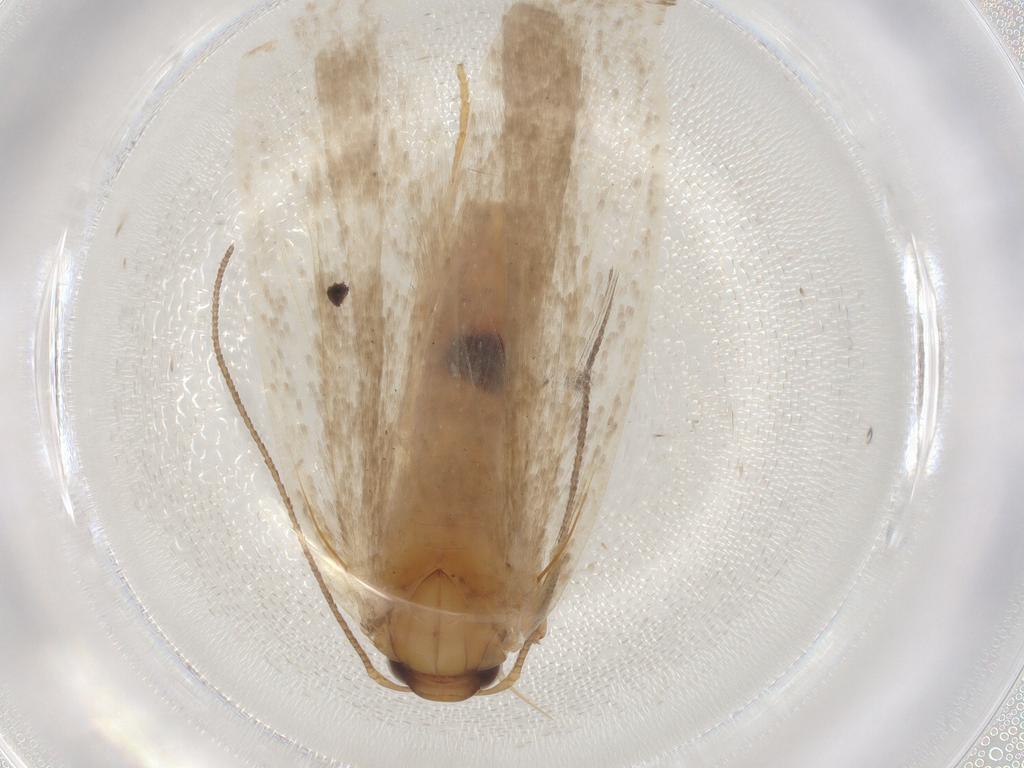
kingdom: Animalia
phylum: Arthropoda
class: Insecta
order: Lepidoptera
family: Gelechiidae
